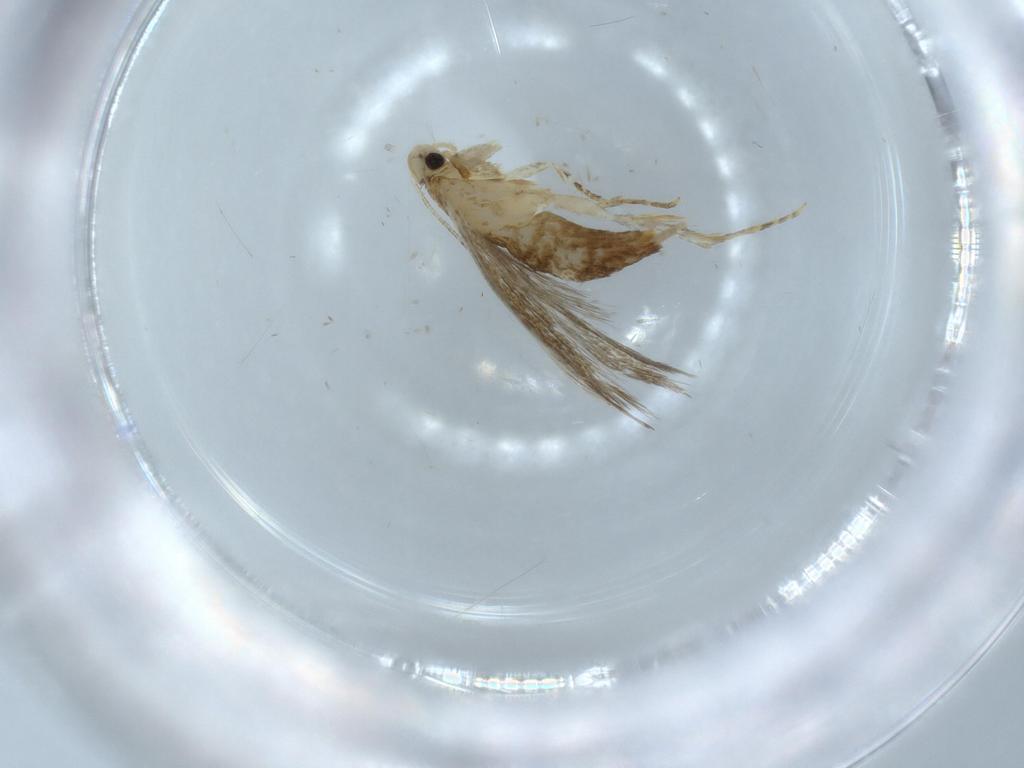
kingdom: Animalia
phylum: Arthropoda
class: Insecta
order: Lepidoptera
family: Tineidae
